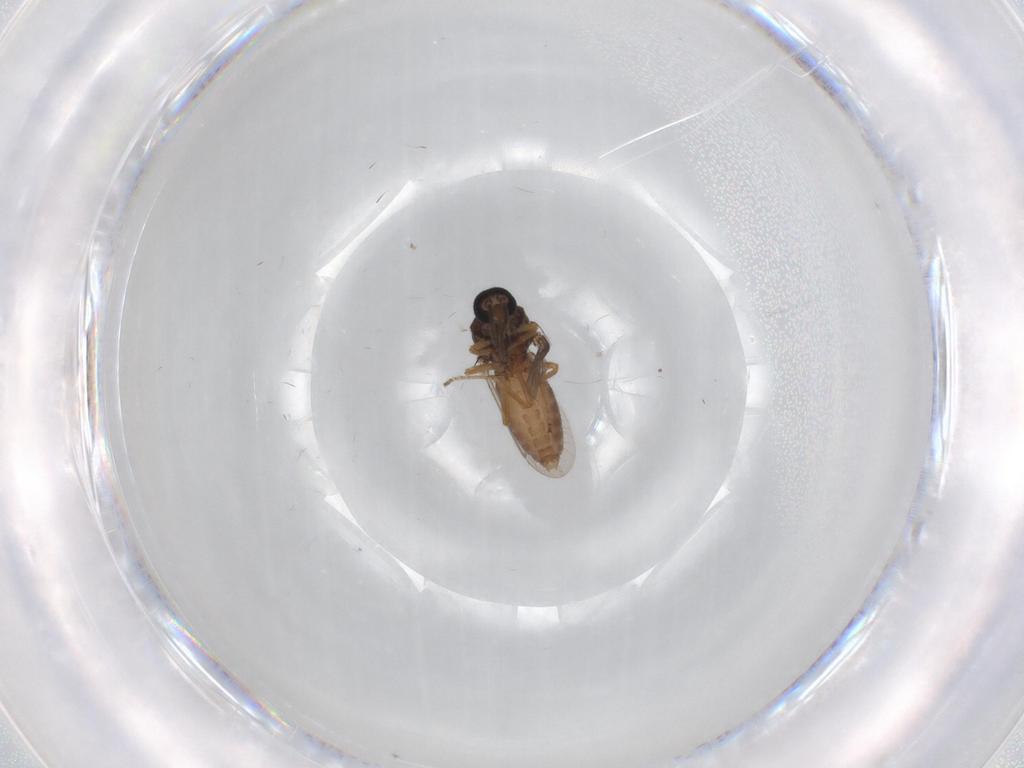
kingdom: Animalia
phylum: Arthropoda
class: Insecta
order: Diptera
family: Ceratopogonidae
